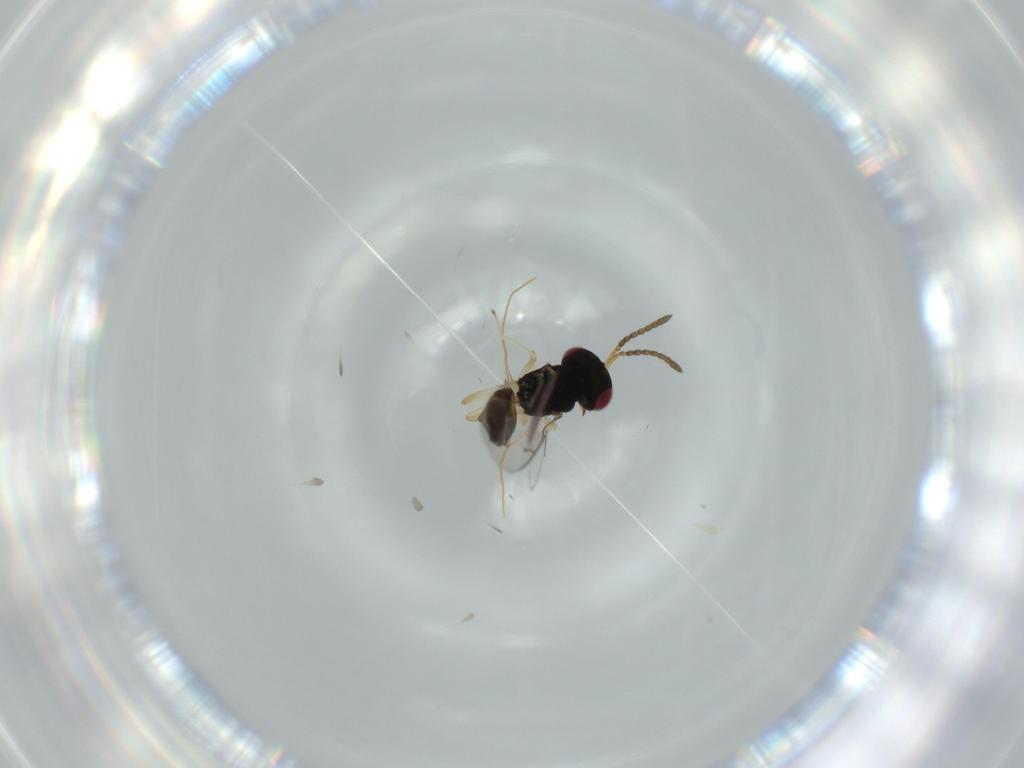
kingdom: Animalia
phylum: Arthropoda
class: Insecta
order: Hymenoptera
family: Pteromalidae
